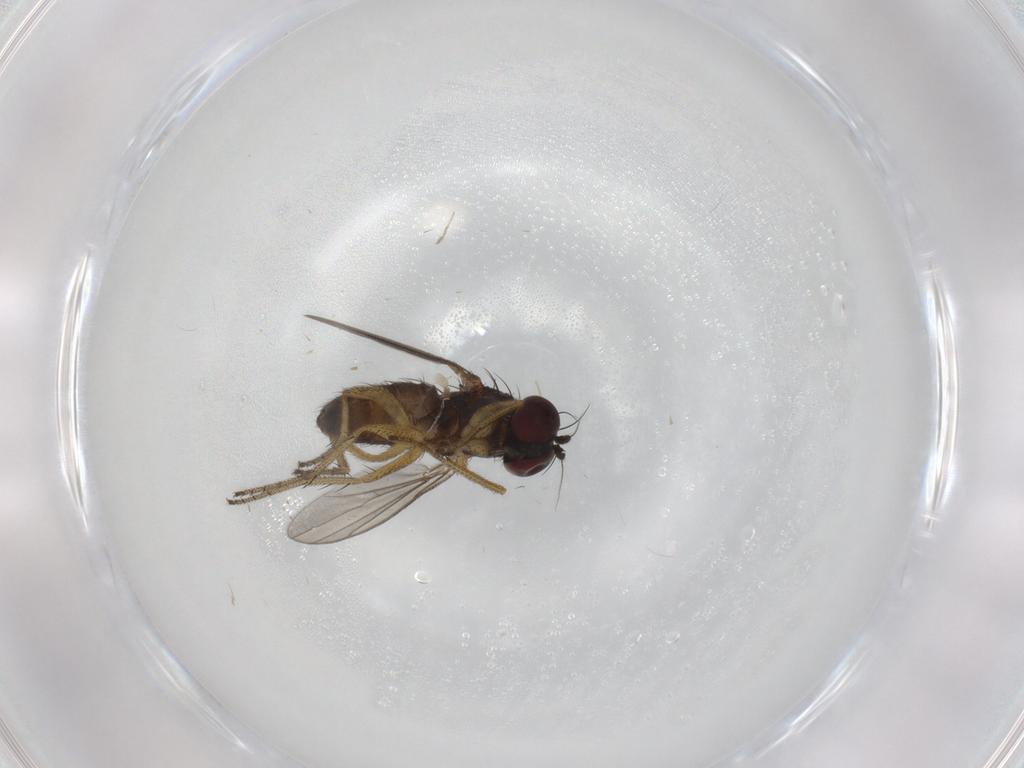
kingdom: Animalia
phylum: Arthropoda
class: Insecta
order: Diptera
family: Dolichopodidae
